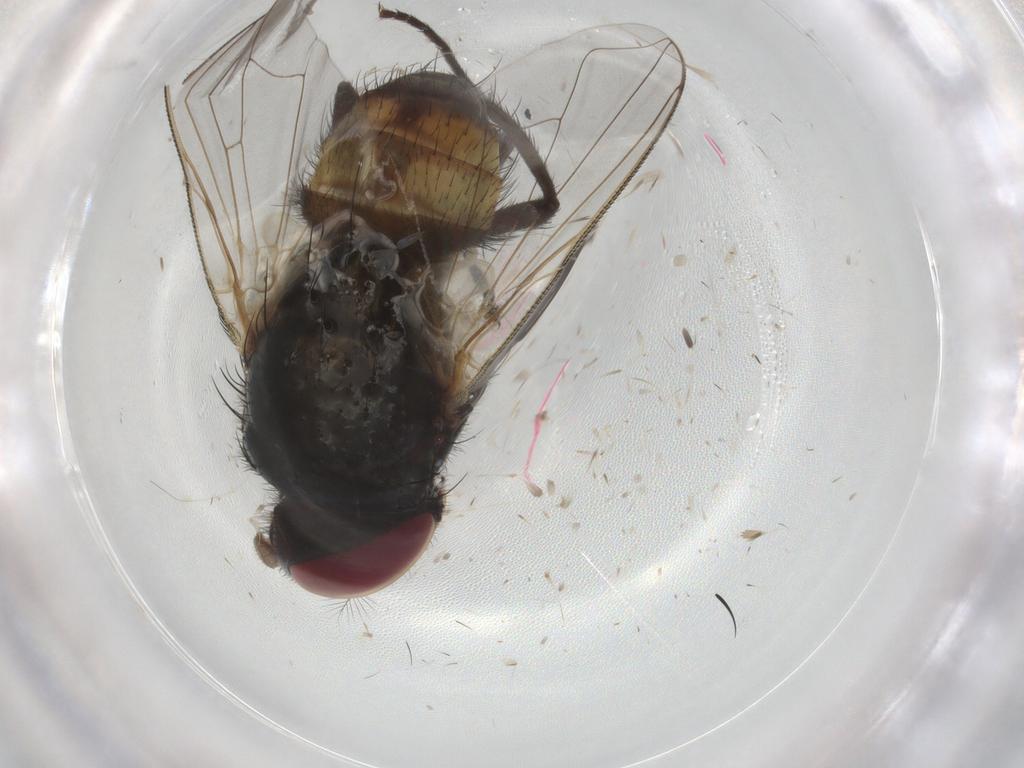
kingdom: Animalia
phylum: Arthropoda
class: Insecta
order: Diptera
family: Muscidae
